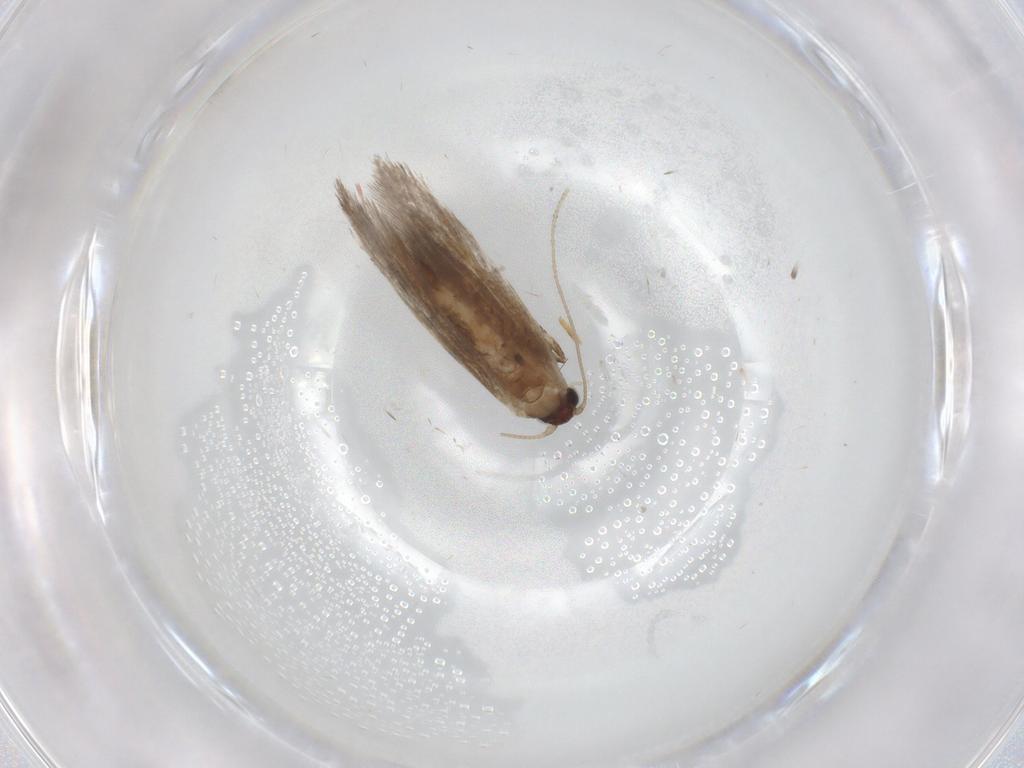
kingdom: Animalia
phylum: Arthropoda
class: Insecta
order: Lepidoptera
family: Tineidae
